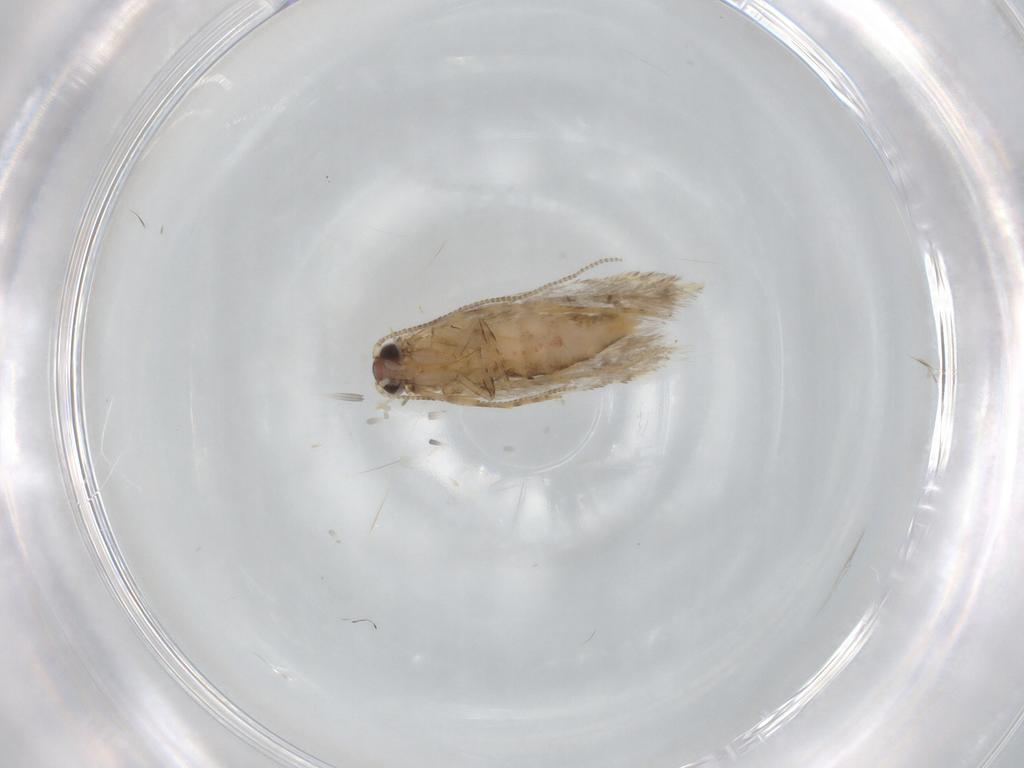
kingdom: Animalia
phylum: Arthropoda
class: Insecta
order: Lepidoptera
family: Tineidae
